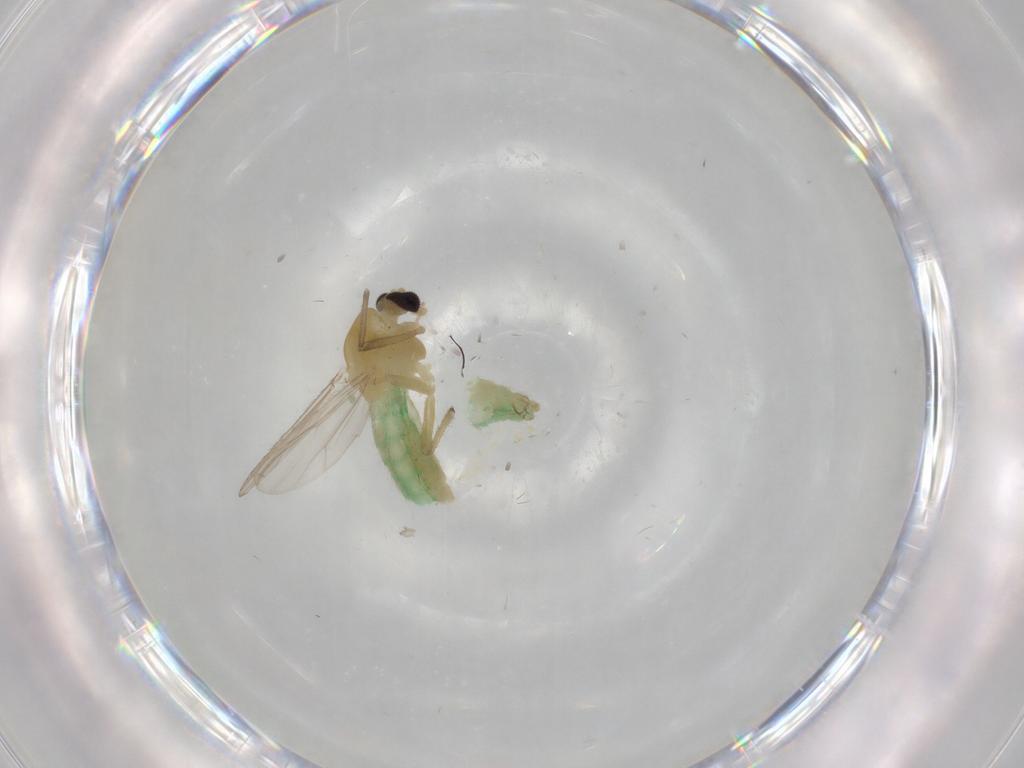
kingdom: Animalia
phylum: Arthropoda
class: Insecta
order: Diptera
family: Chironomidae
